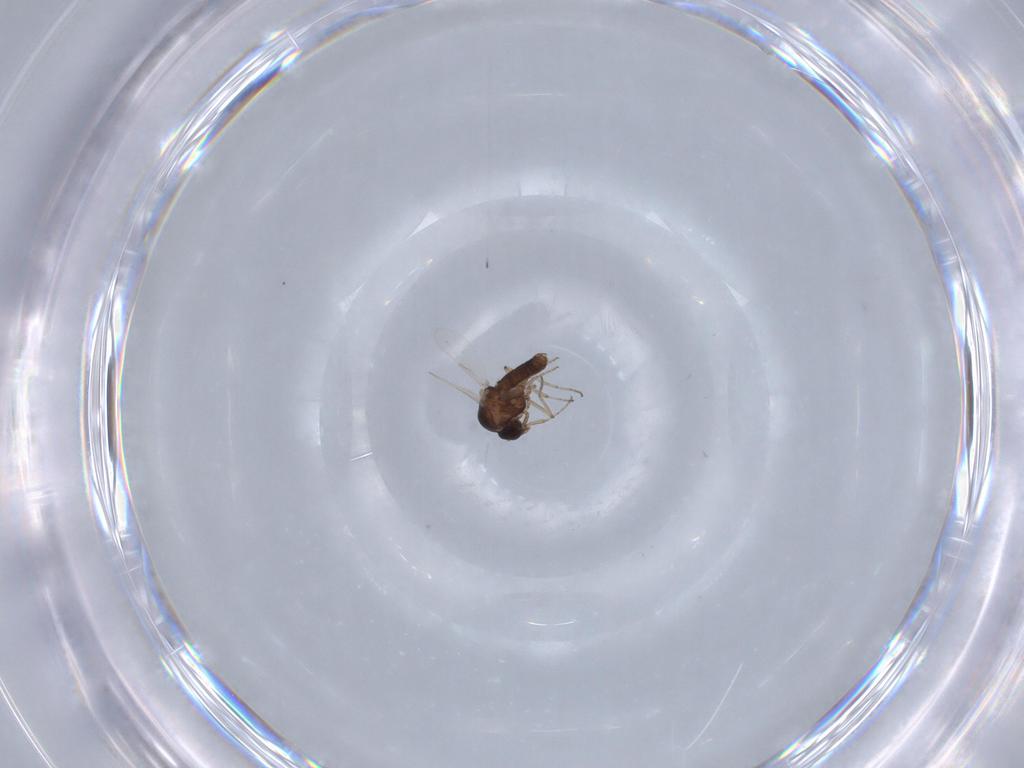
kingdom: Animalia
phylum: Arthropoda
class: Insecta
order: Diptera
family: Ceratopogonidae
